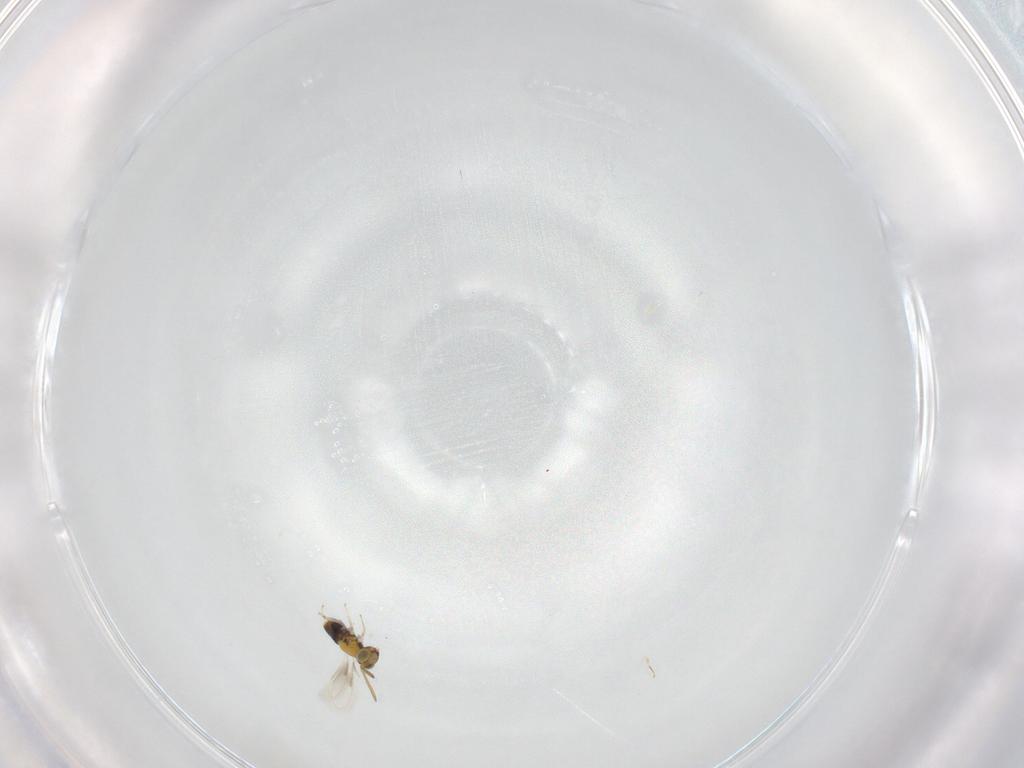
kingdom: Animalia
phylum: Arthropoda
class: Insecta
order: Hymenoptera
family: Aphelinidae
